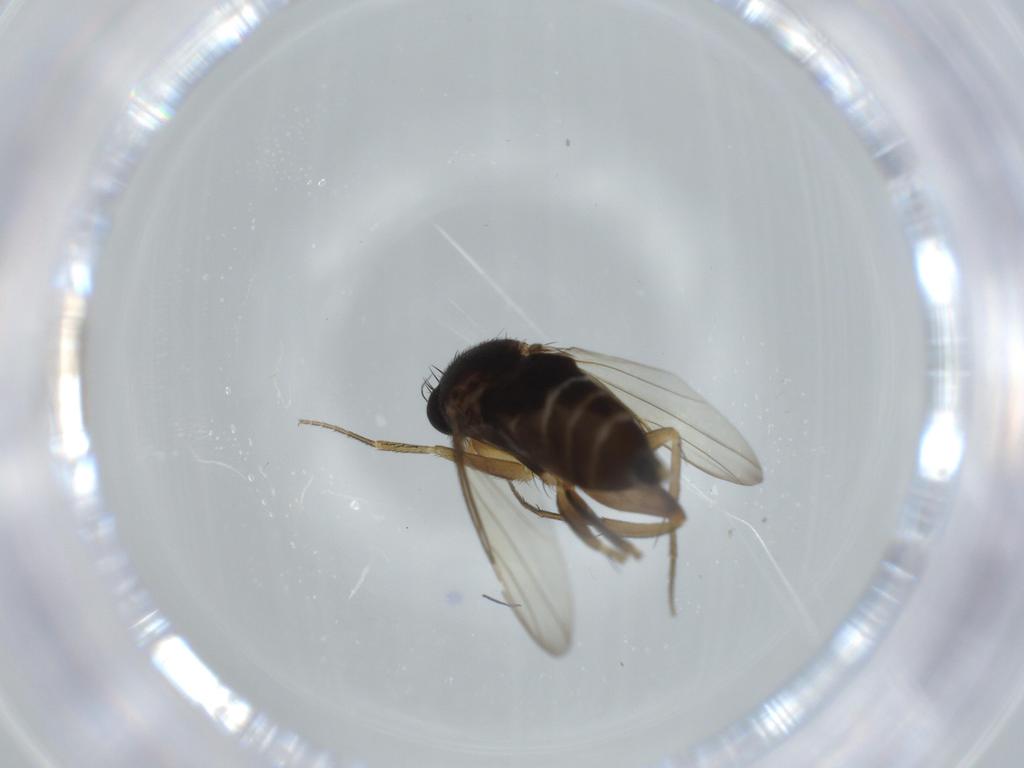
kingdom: Animalia
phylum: Arthropoda
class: Insecta
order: Diptera
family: Phoridae
